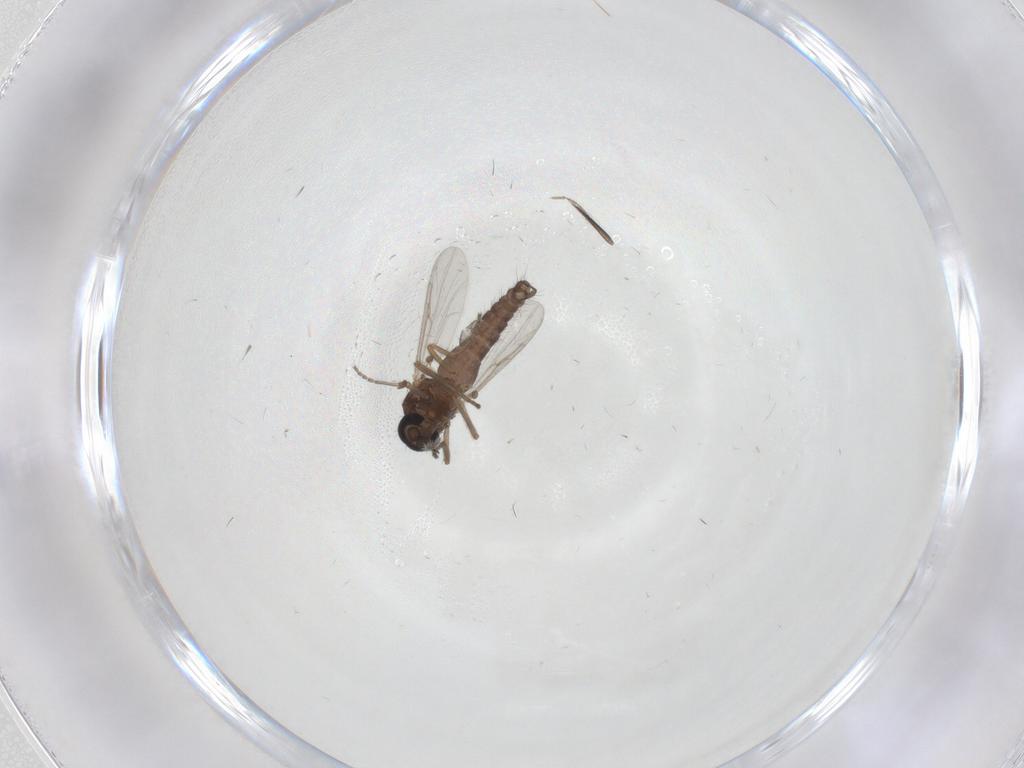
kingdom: Animalia
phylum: Arthropoda
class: Insecta
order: Diptera
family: Ceratopogonidae
